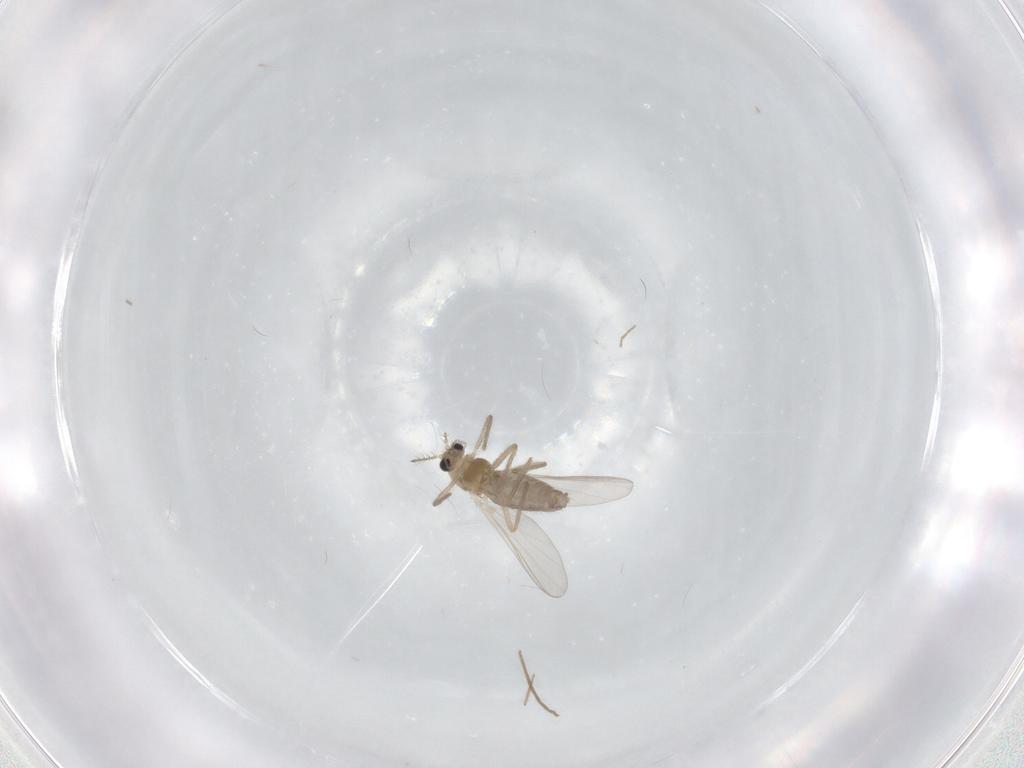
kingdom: Animalia
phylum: Arthropoda
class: Insecta
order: Diptera
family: Chironomidae
